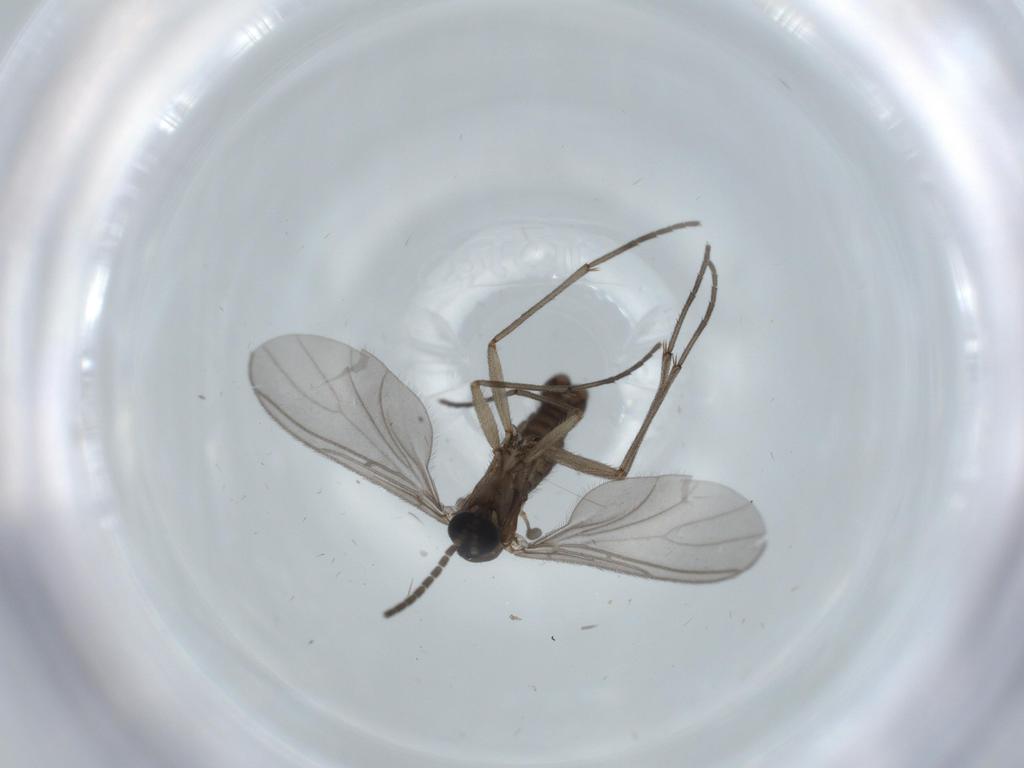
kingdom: Animalia
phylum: Arthropoda
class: Insecta
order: Diptera
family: Sciaridae
